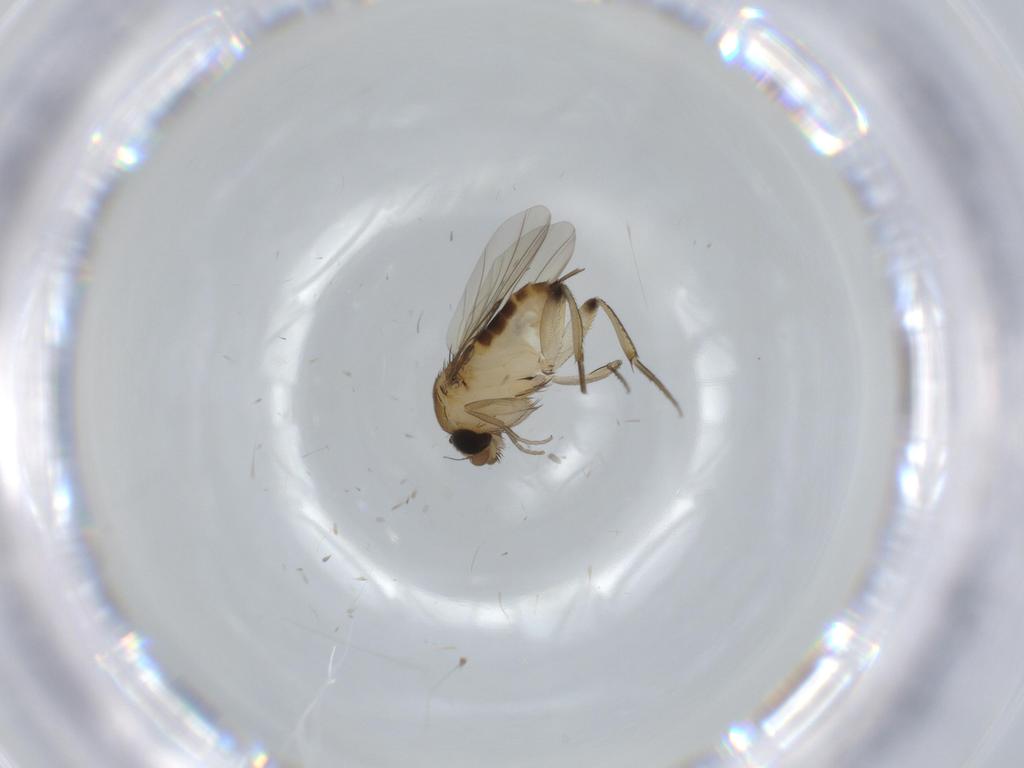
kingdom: Animalia
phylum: Arthropoda
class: Insecta
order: Diptera
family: Phoridae
